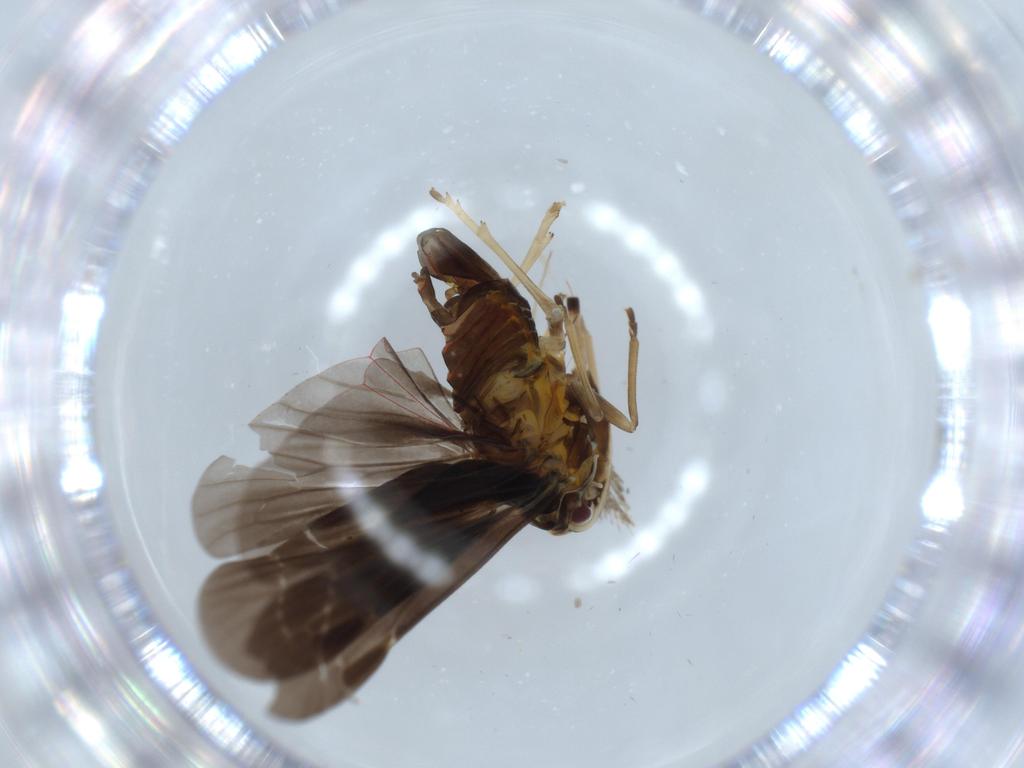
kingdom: Animalia
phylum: Arthropoda
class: Insecta
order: Hemiptera
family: Derbidae
